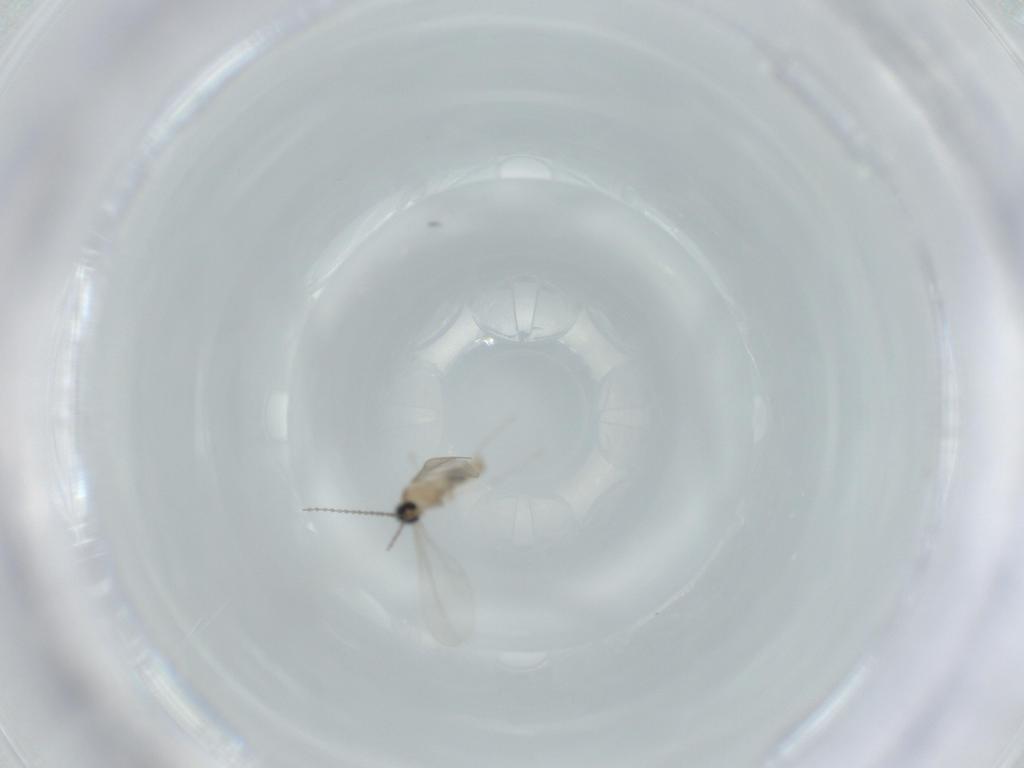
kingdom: Animalia
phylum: Arthropoda
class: Insecta
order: Diptera
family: Cecidomyiidae
